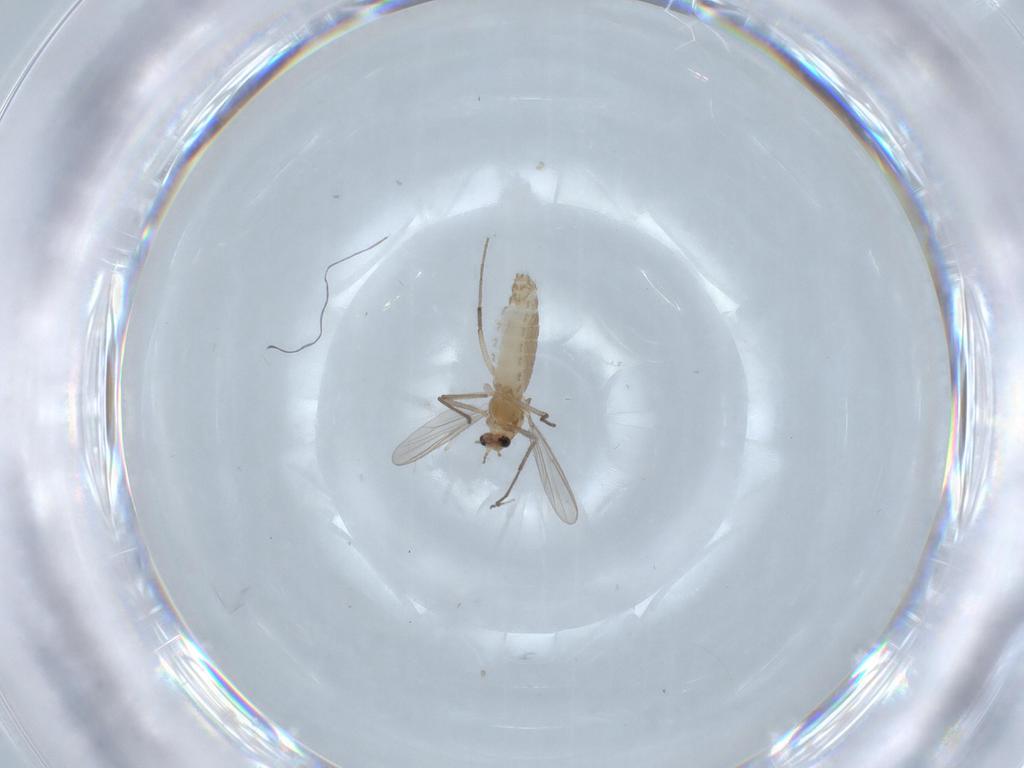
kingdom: Animalia
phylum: Arthropoda
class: Insecta
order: Diptera
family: Chironomidae
